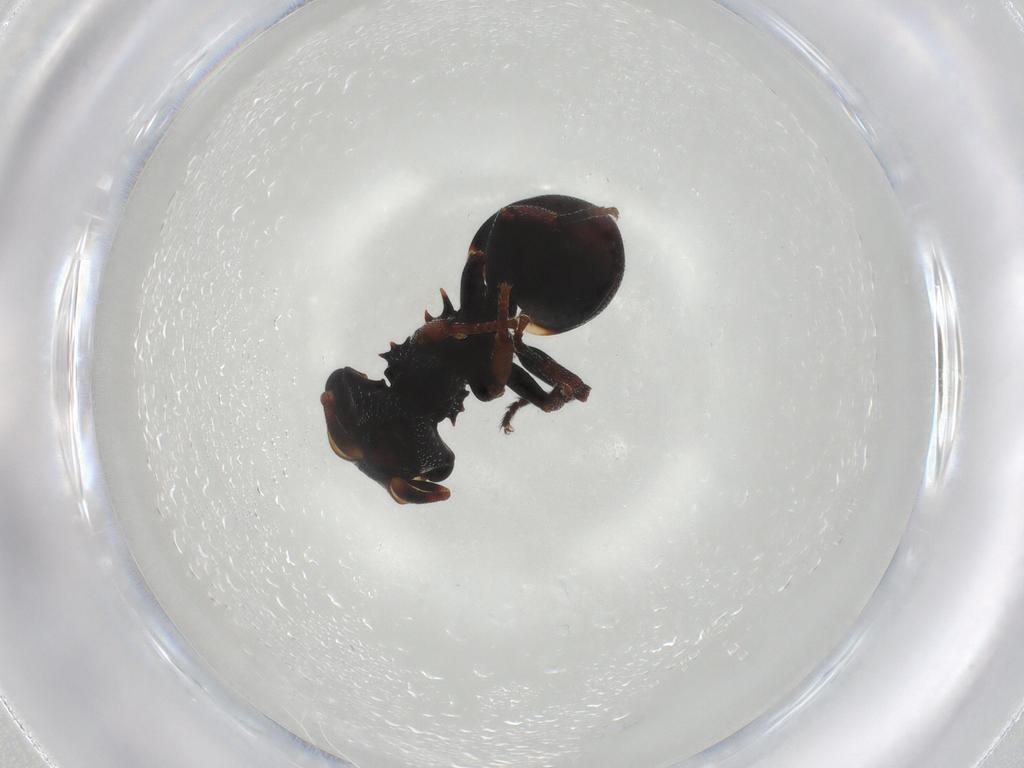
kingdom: Animalia
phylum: Arthropoda
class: Insecta
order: Hymenoptera
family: Formicidae
